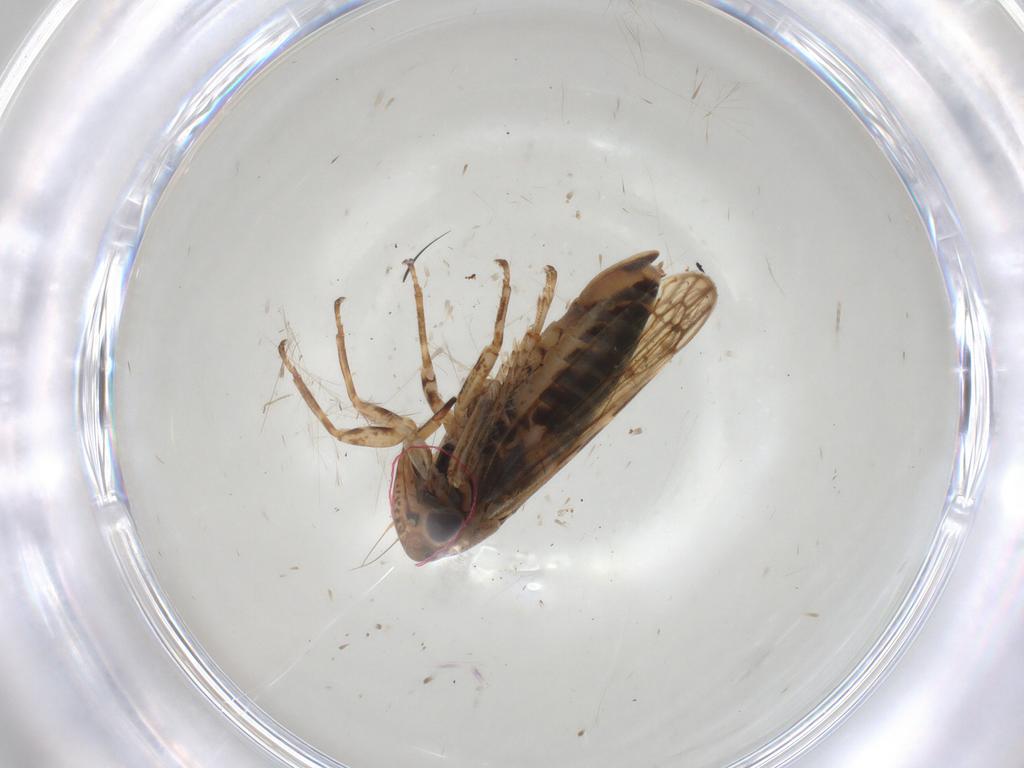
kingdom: Animalia
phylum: Arthropoda
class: Insecta
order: Hemiptera
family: Cicadellidae
